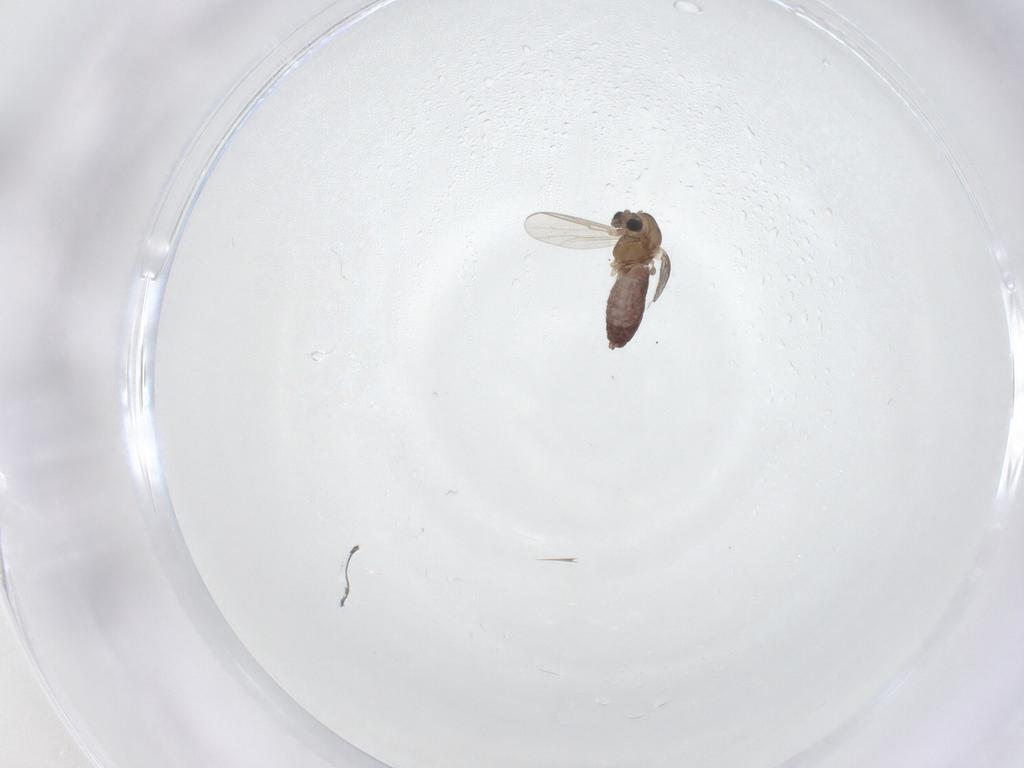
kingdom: Animalia
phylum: Arthropoda
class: Insecta
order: Diptera
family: Chironomidae
